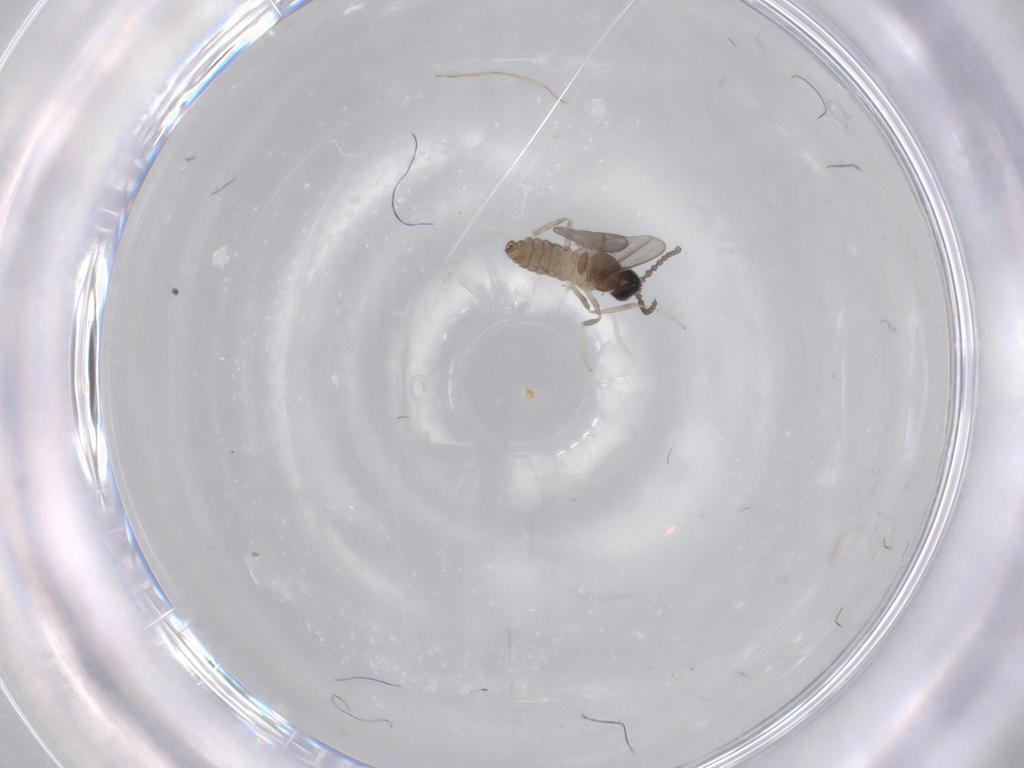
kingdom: Animalia
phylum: Arthropoda
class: Insecta
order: Diptera
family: Cecidomyiidae
